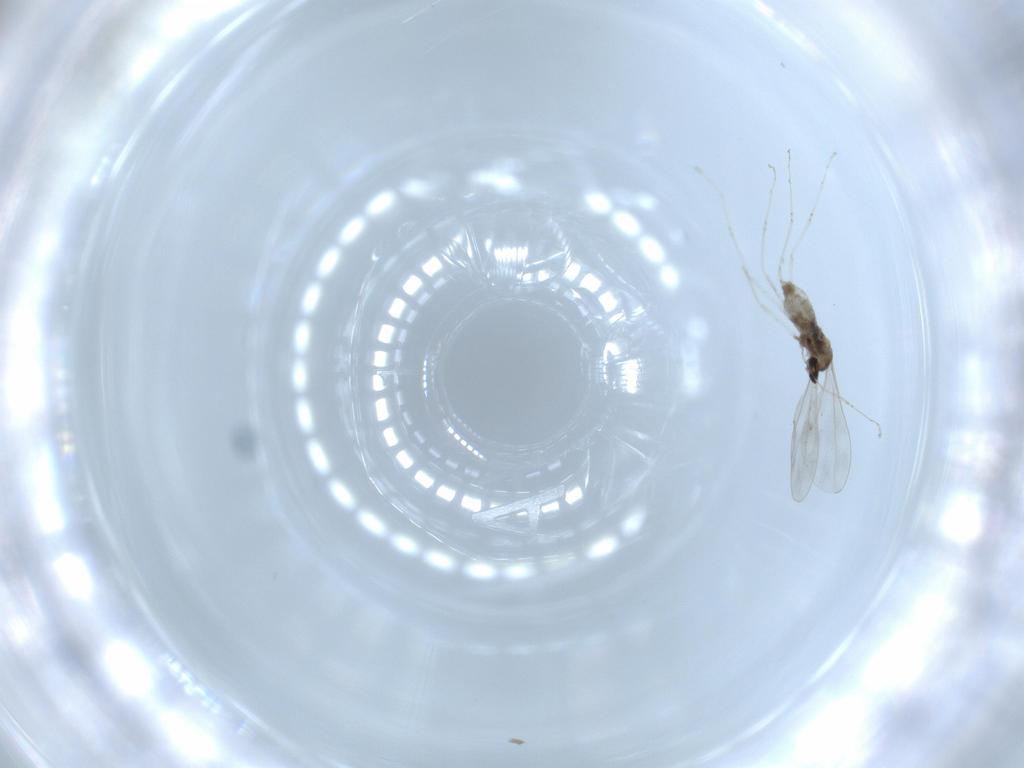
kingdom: Animalia
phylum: Arthropoda
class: Insecta
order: Diptera
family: Cecidomyiidae
